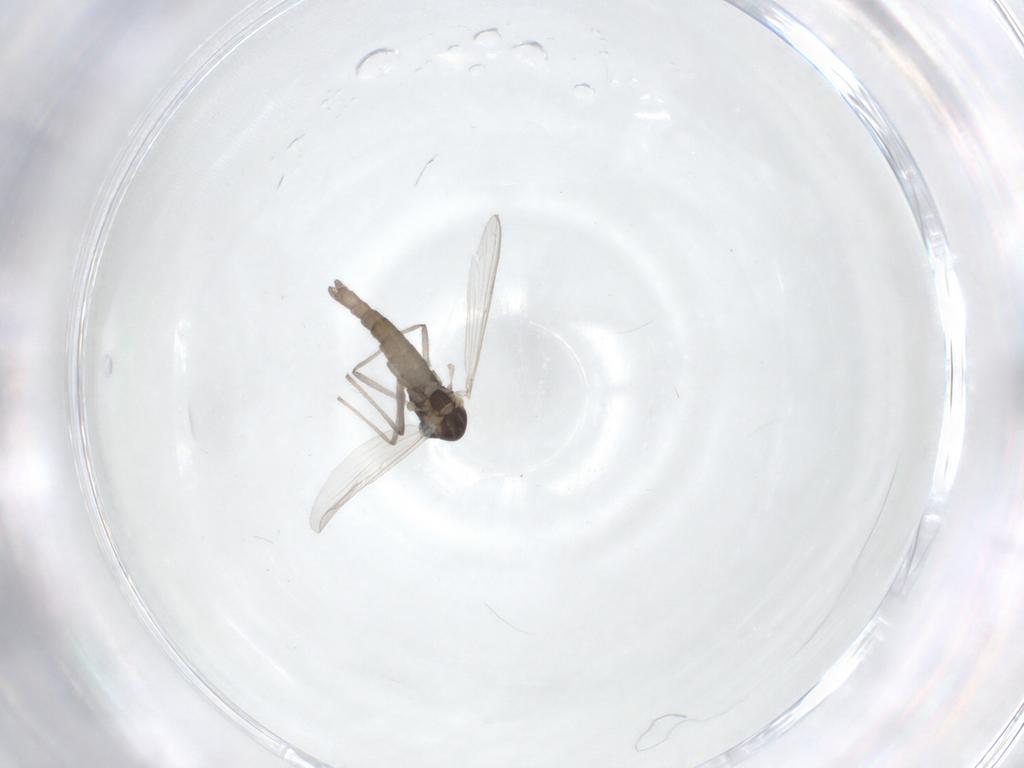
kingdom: Animalia
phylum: Arthropoda
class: Insecta
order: Diptera
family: Chironomidae
